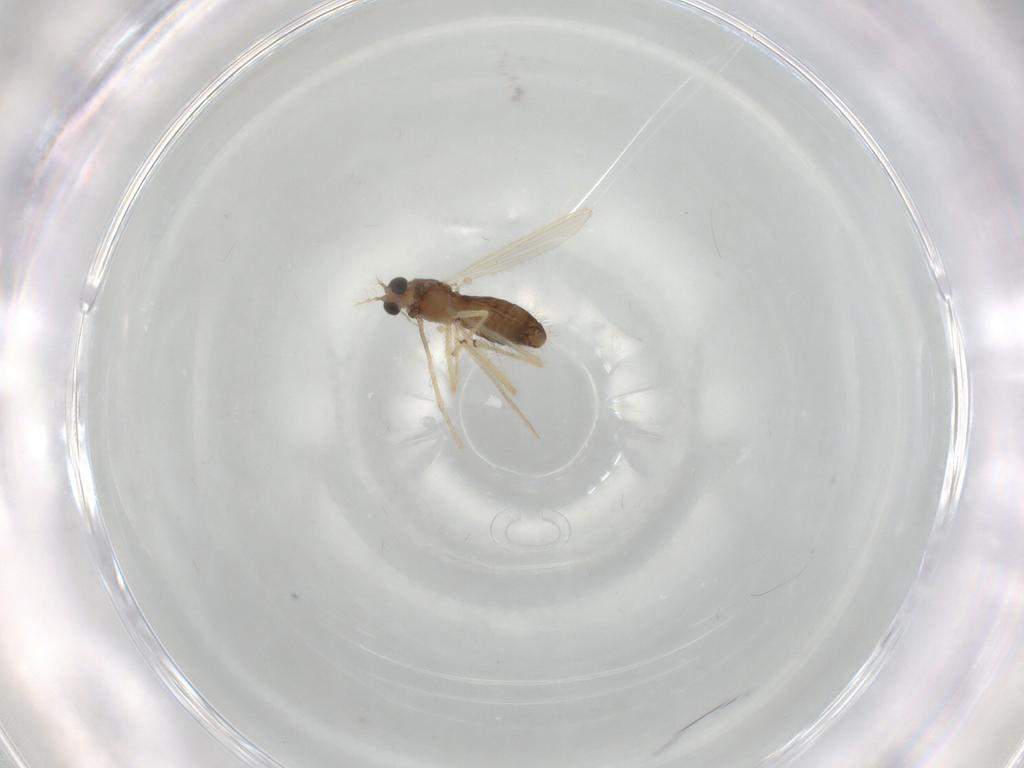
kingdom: Animalia
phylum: Arthropoda
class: Insecta
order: Diptera
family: Chironomidae
